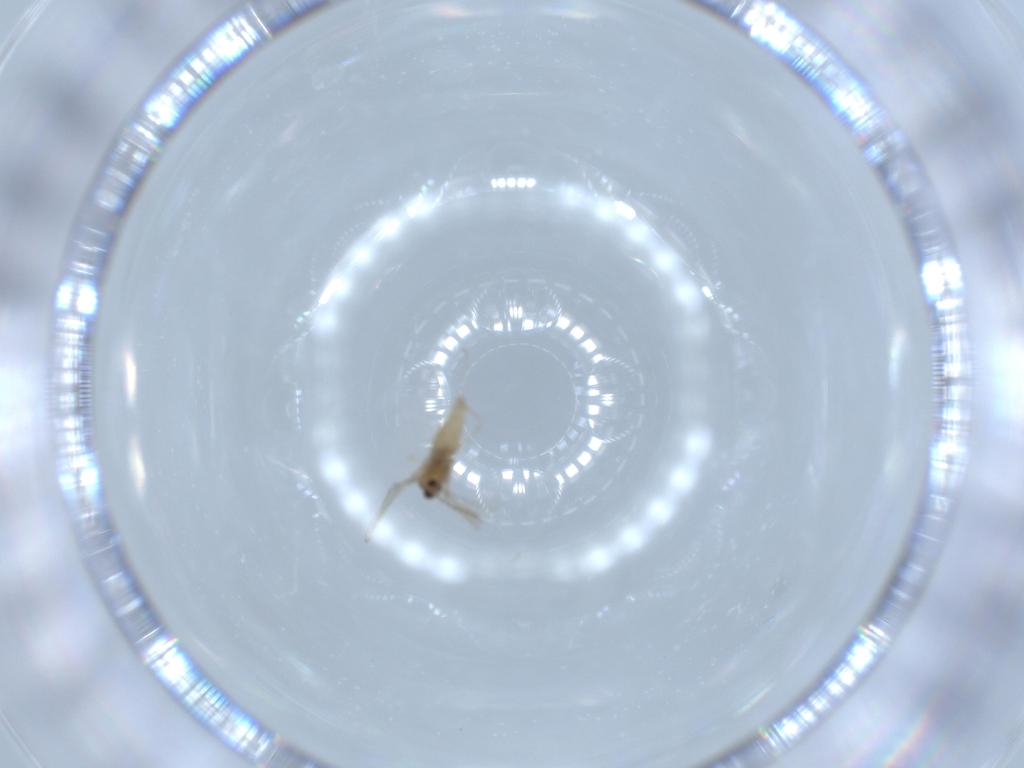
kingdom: Animalia
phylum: Arthropoda
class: Insecta
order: Diptera
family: Cecidomyiidae
